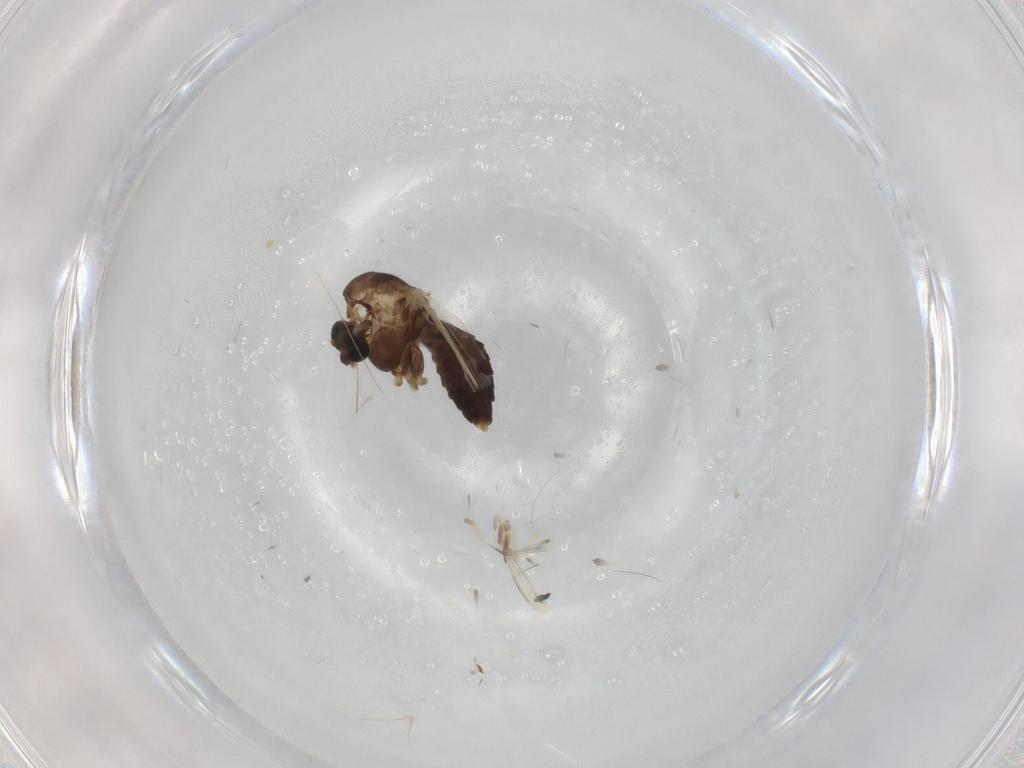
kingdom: Animalia
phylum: Arthropoda
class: Insecta
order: Diptera
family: Chironomidae
